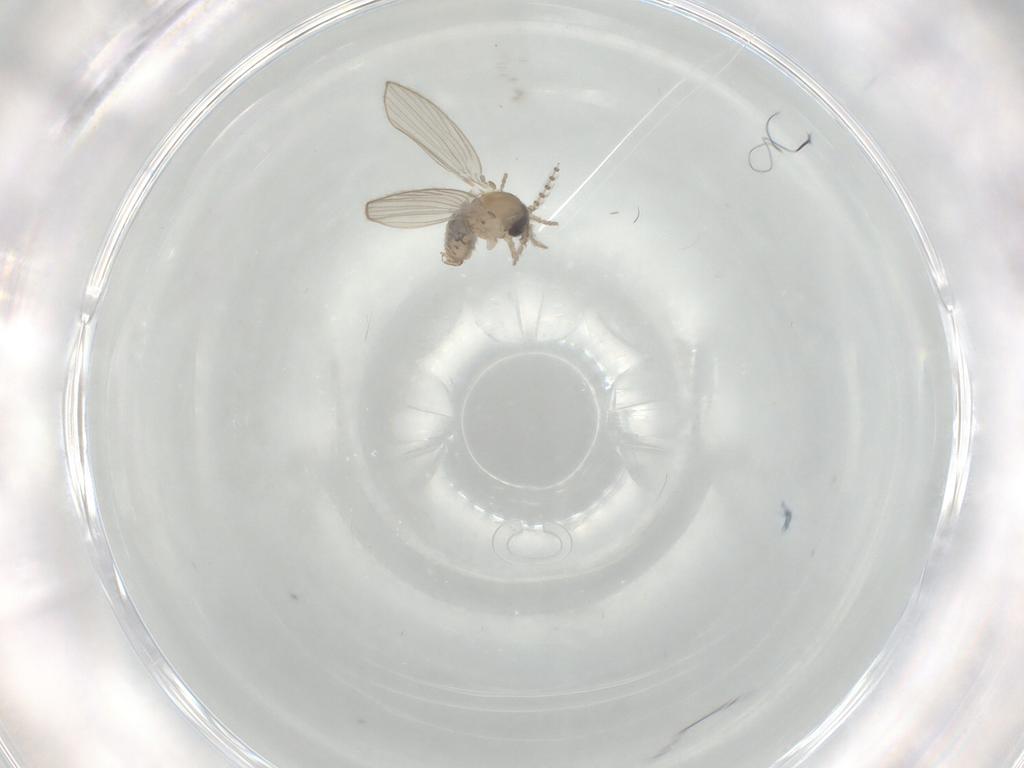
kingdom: Animalia
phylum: Arthropoda
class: Insecta
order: Diptera
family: Psychodidae
